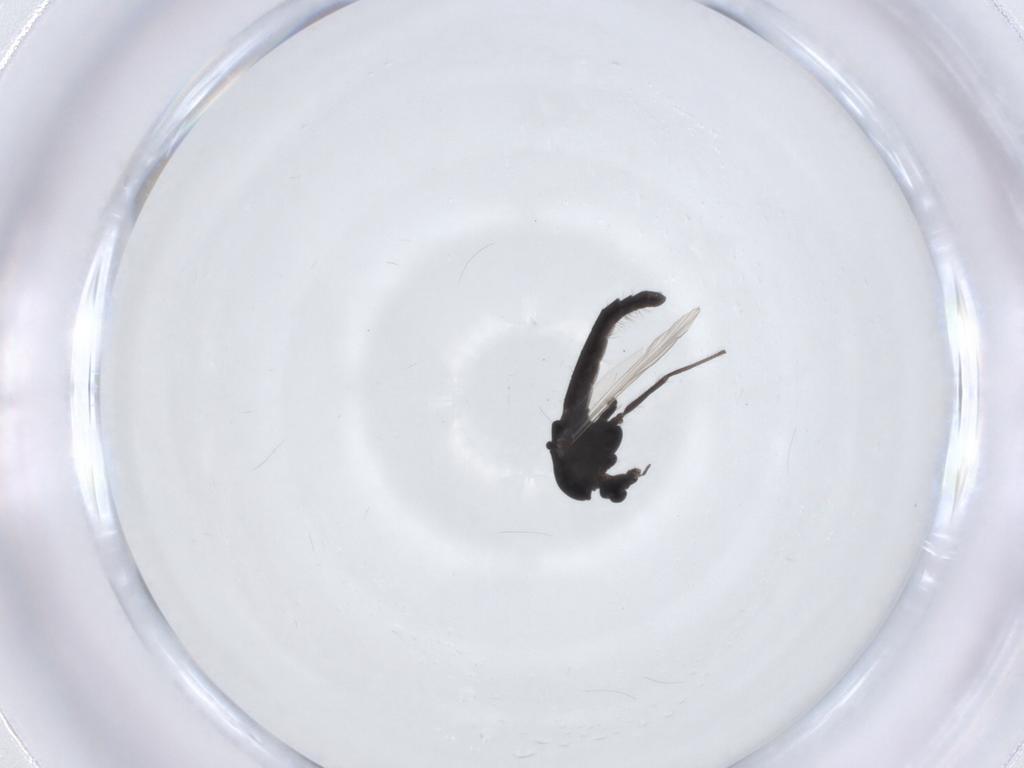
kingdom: Animalia
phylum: Arthropoda
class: Insecta
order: Diptera
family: Chironomidae
